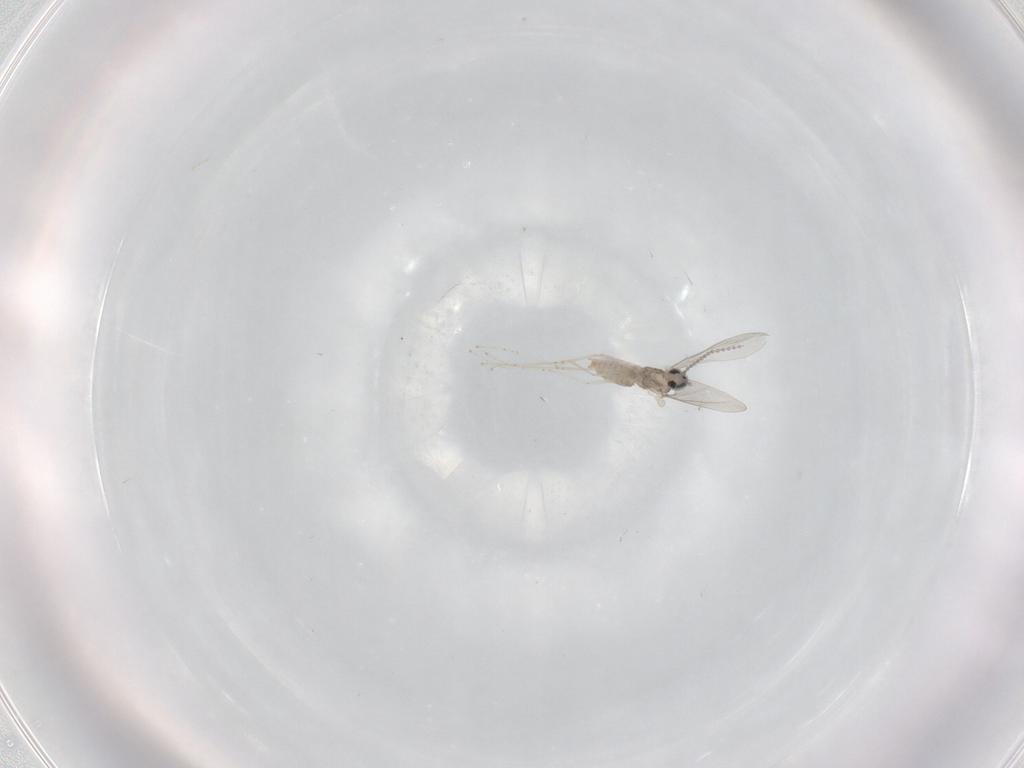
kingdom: Animalia
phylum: Arthropoda
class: Insecta
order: Diptera
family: Cecidomyiidae
